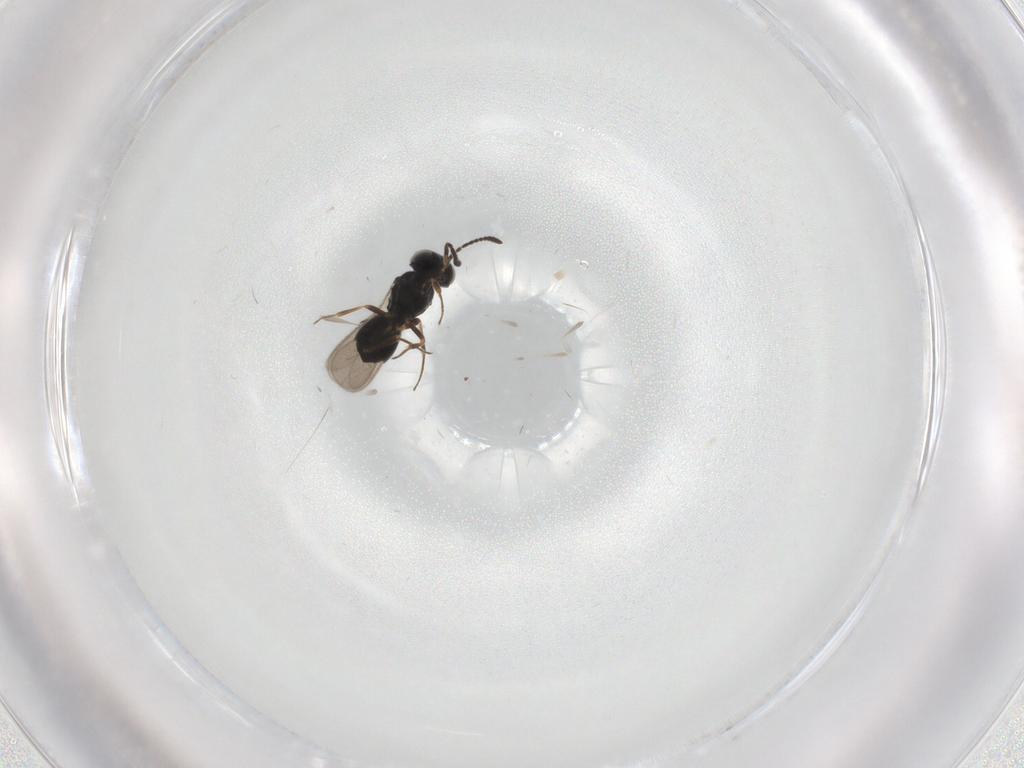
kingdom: Animalia
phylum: Arthropoda
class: Insecta
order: Hymenoptera
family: Scelionidae
